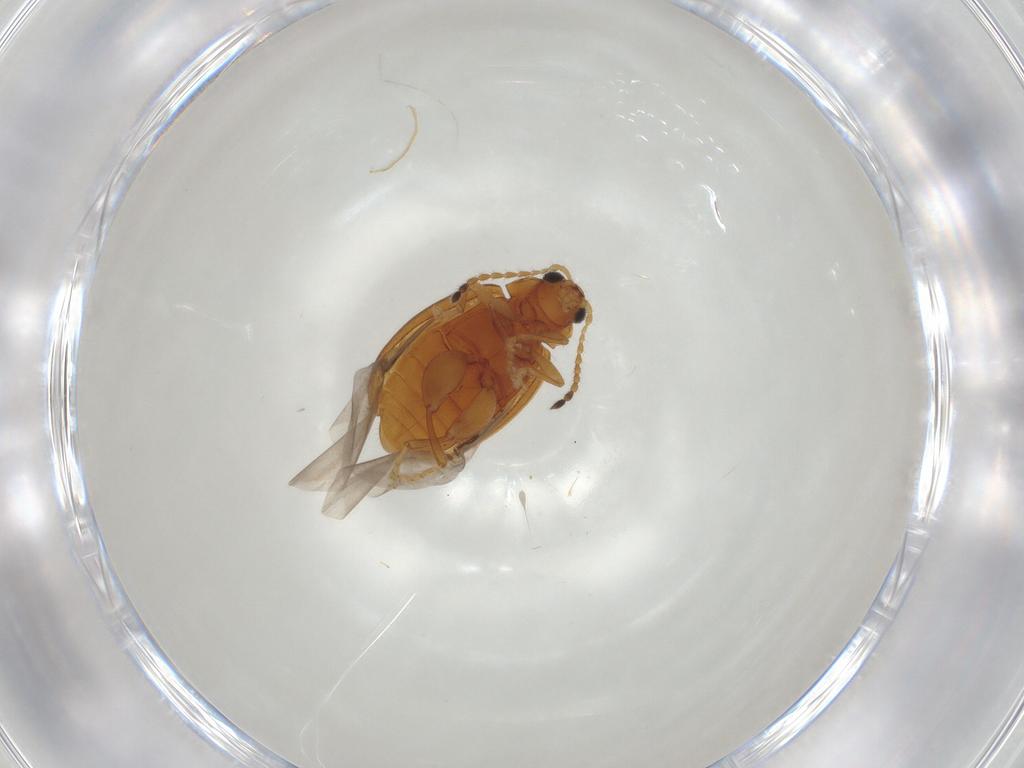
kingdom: Animalia
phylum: Arthropoda
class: Insecta
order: Coleoptera
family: Chrysomelidae
